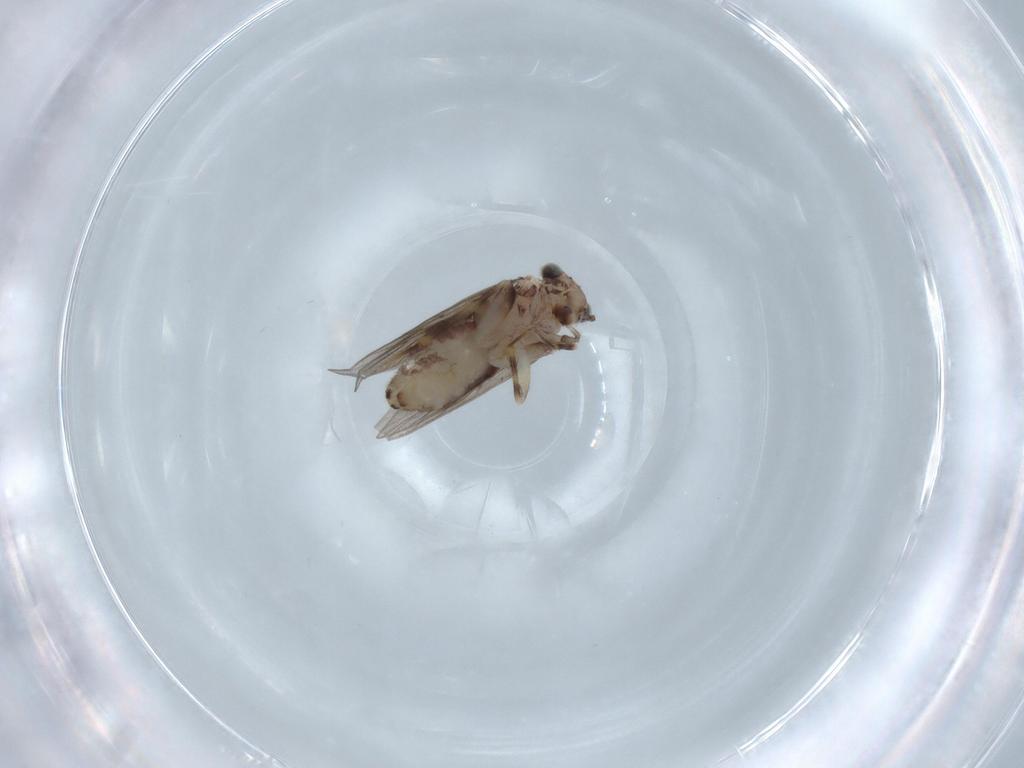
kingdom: Animalia
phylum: Arthropoda
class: Insecta
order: Psocodea
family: Lepidopsocidae
